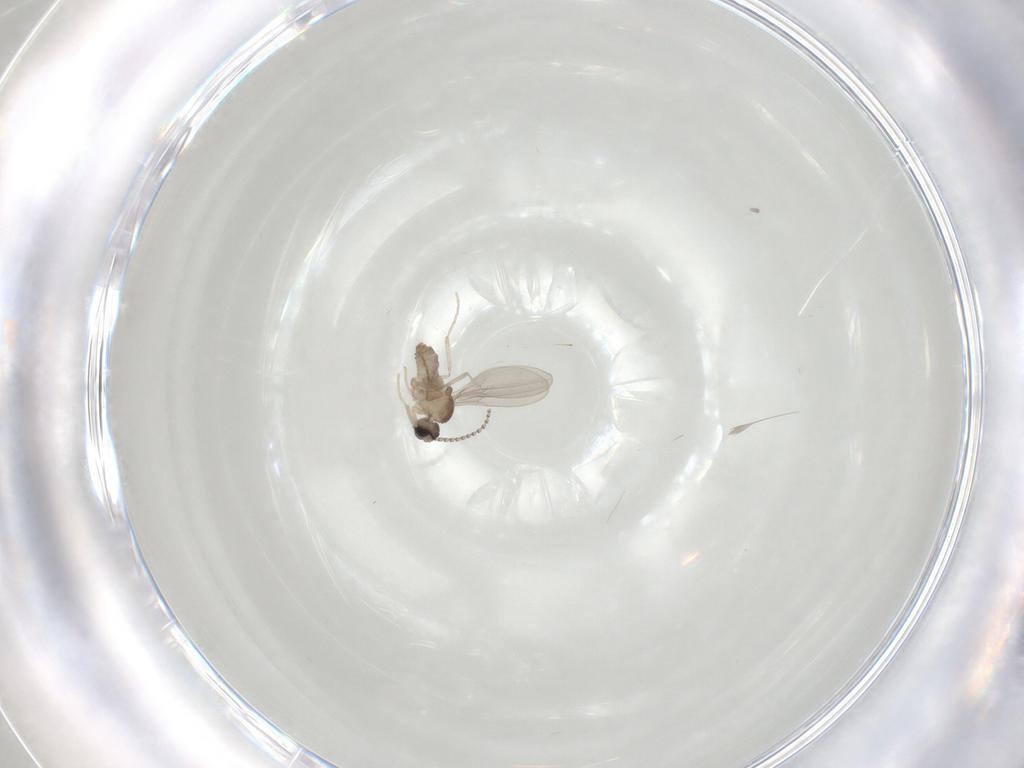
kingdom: Animalia
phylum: Arthropoda
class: Insecta
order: Diptera
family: Cecidomyiidae
